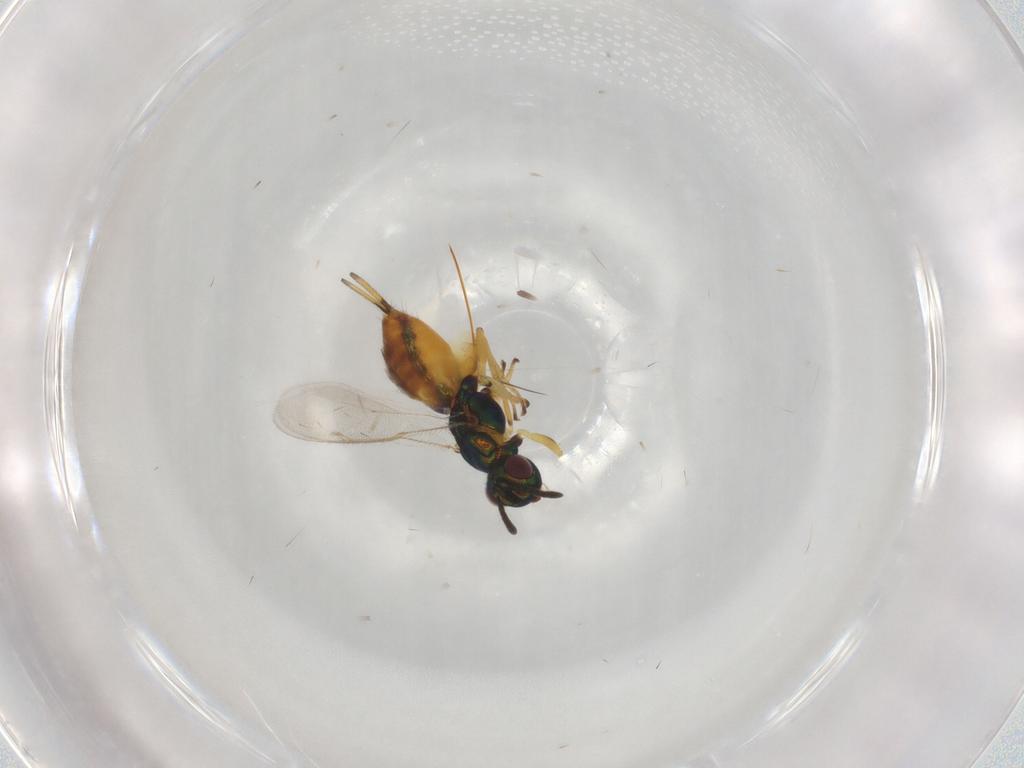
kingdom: Animalia
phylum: Arthropoda
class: Insecta
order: Hymenoptera
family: Eupelmidae
